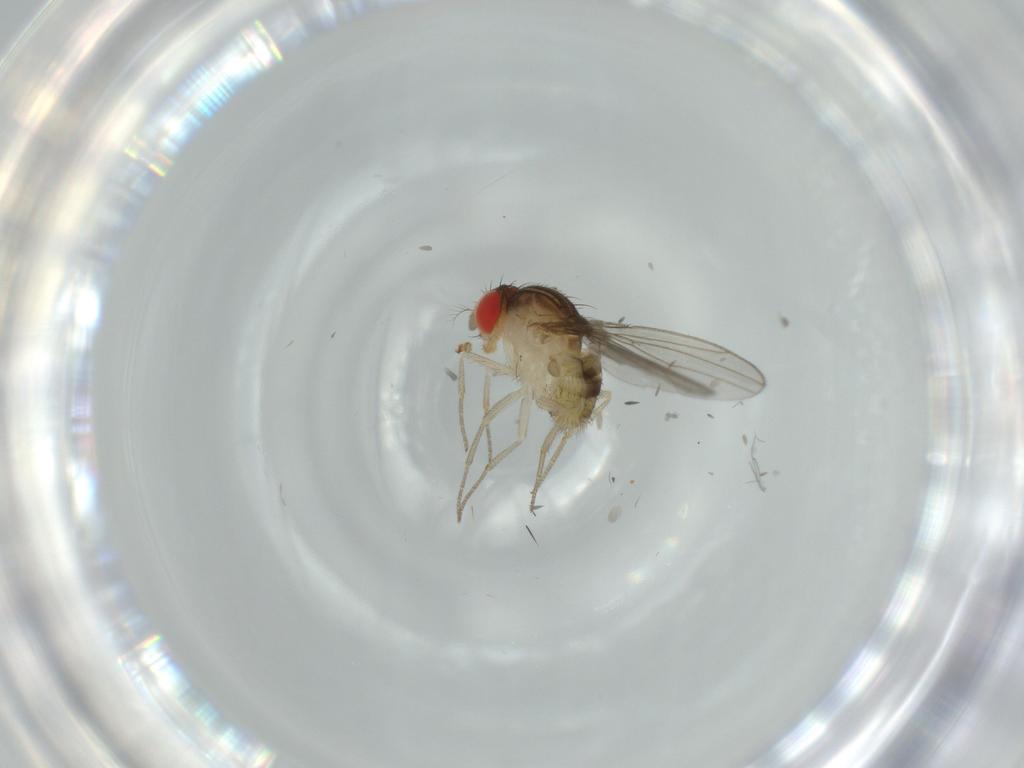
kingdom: Animalia
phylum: Arthropoda
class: Insecta
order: Diptera
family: Drosophilidae
